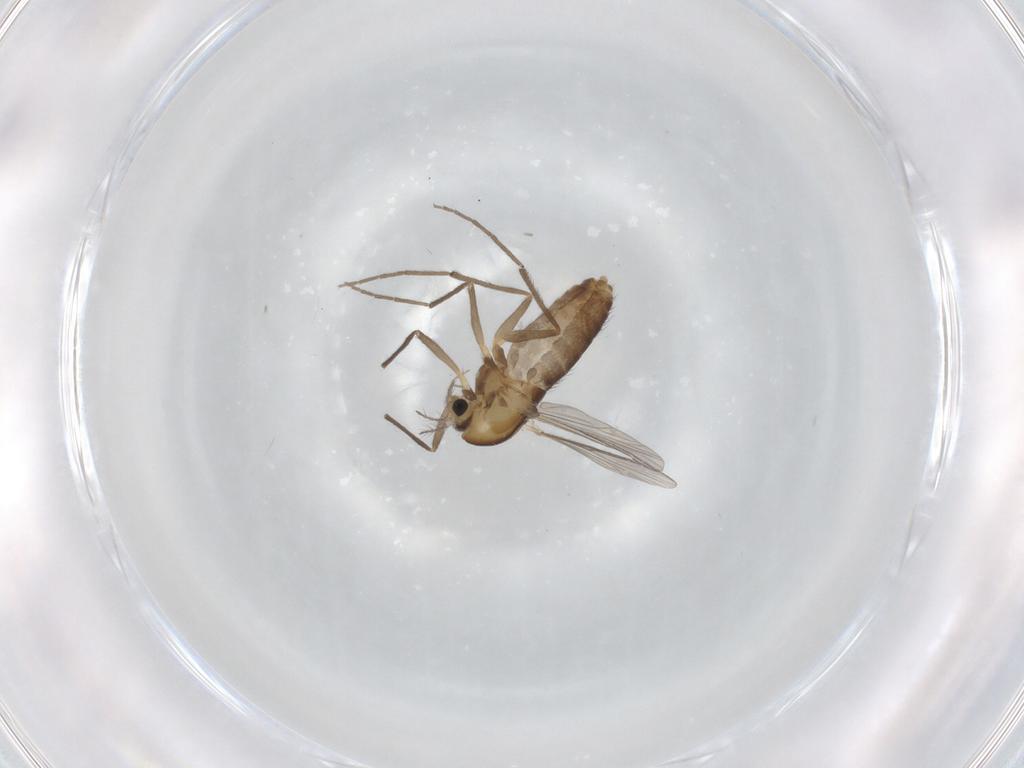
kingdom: Animalia
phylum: Arthropoda
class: Insecta
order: Diptera
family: Chironomidae
